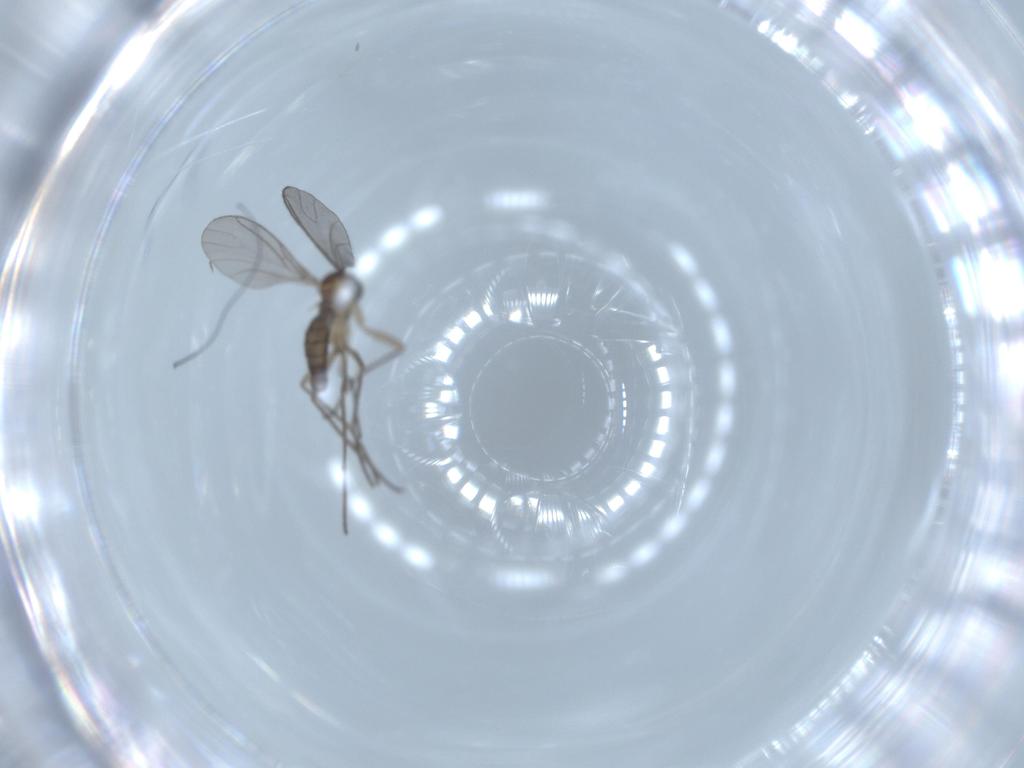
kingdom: Animalia
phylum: Arthropoda
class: Insecta
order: Diptera
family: Sciaridae
